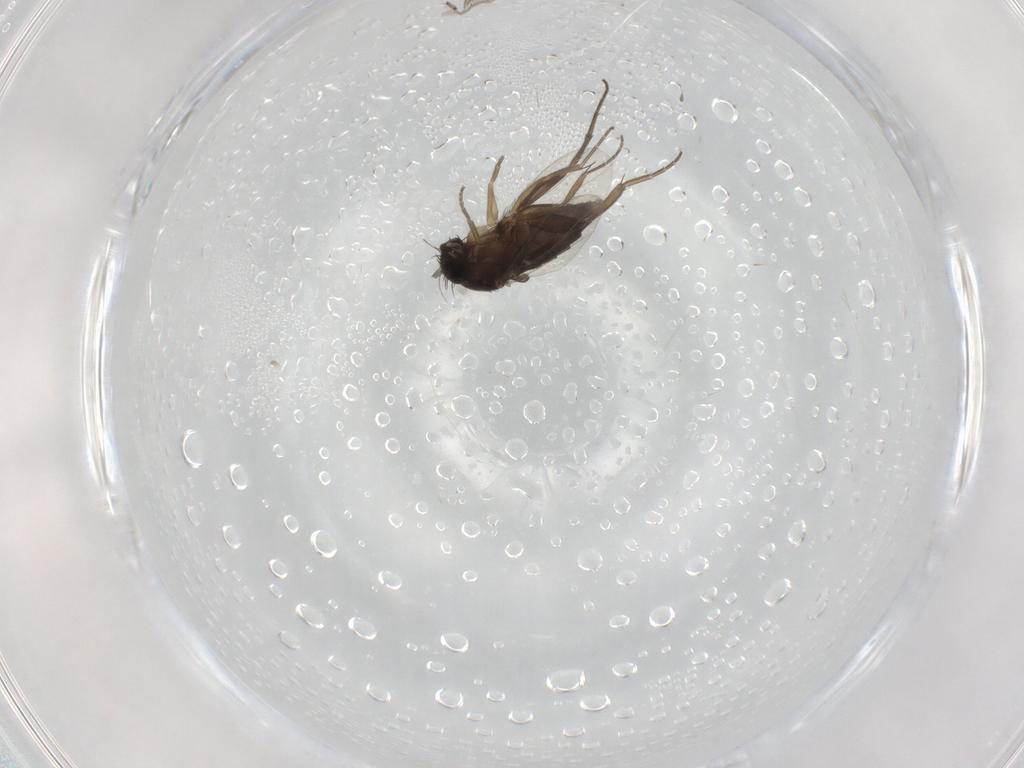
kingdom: Animalia
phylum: Arthropoda
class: Insecta
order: Diptera
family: Phoridae
